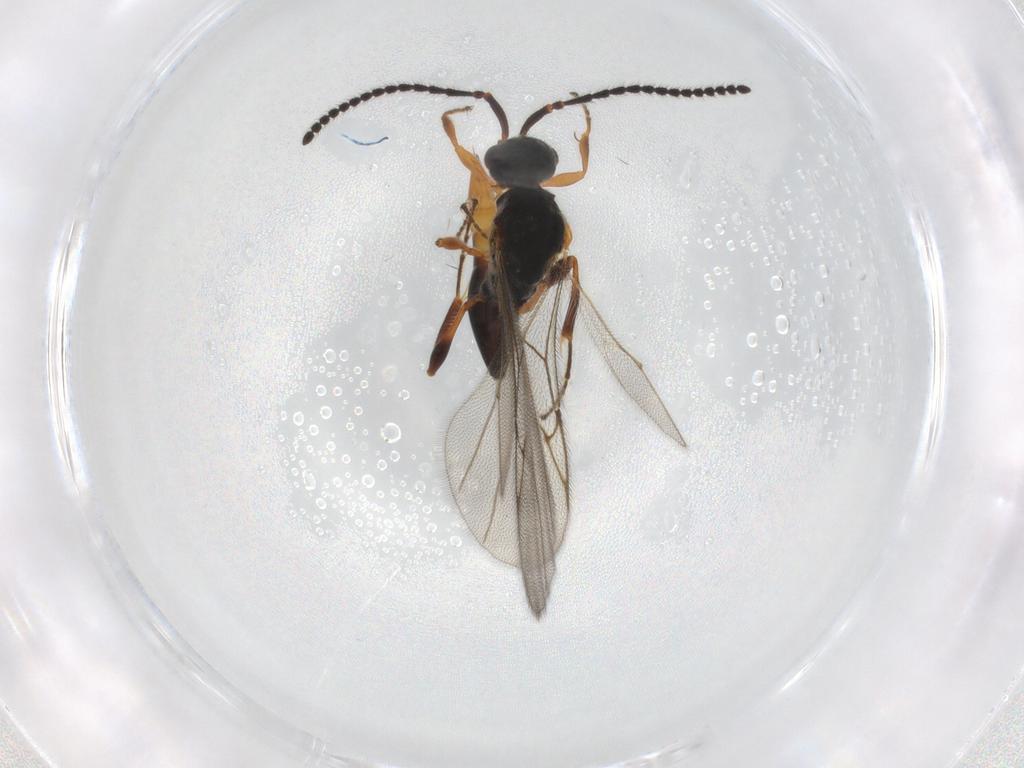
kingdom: Animalia
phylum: Arthropoda
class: Insecta
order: Hymenoptera
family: Diapriidae
